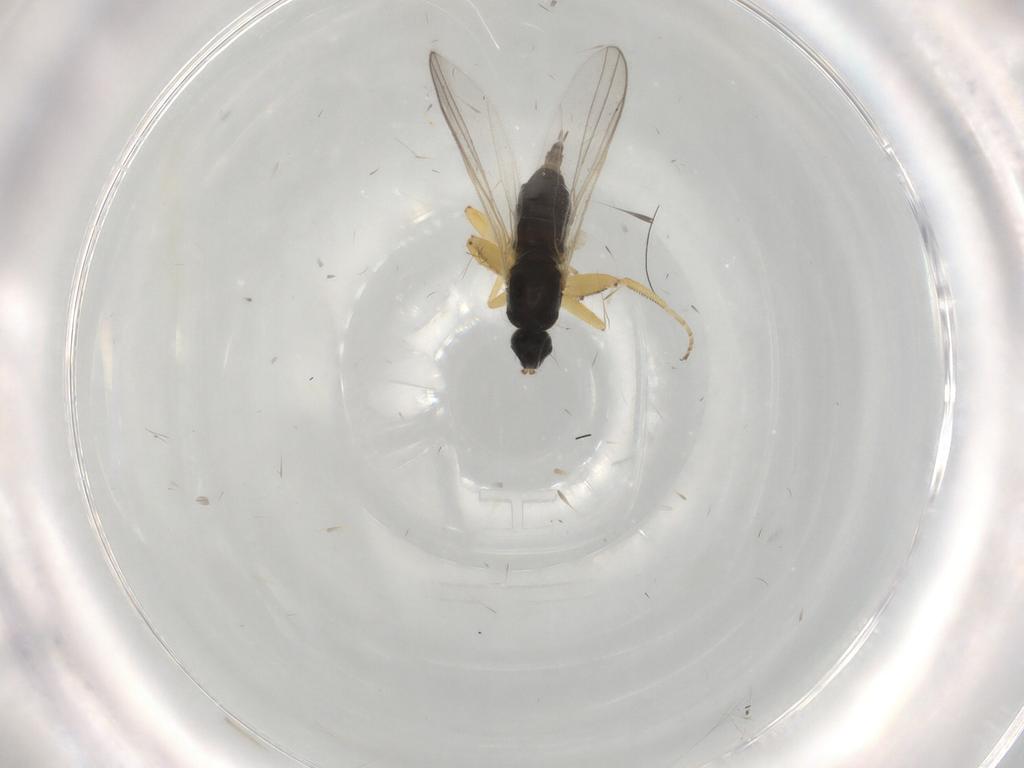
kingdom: Animalia
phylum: Arthropoda
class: Insecta
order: Diptera
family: Hybotidae
